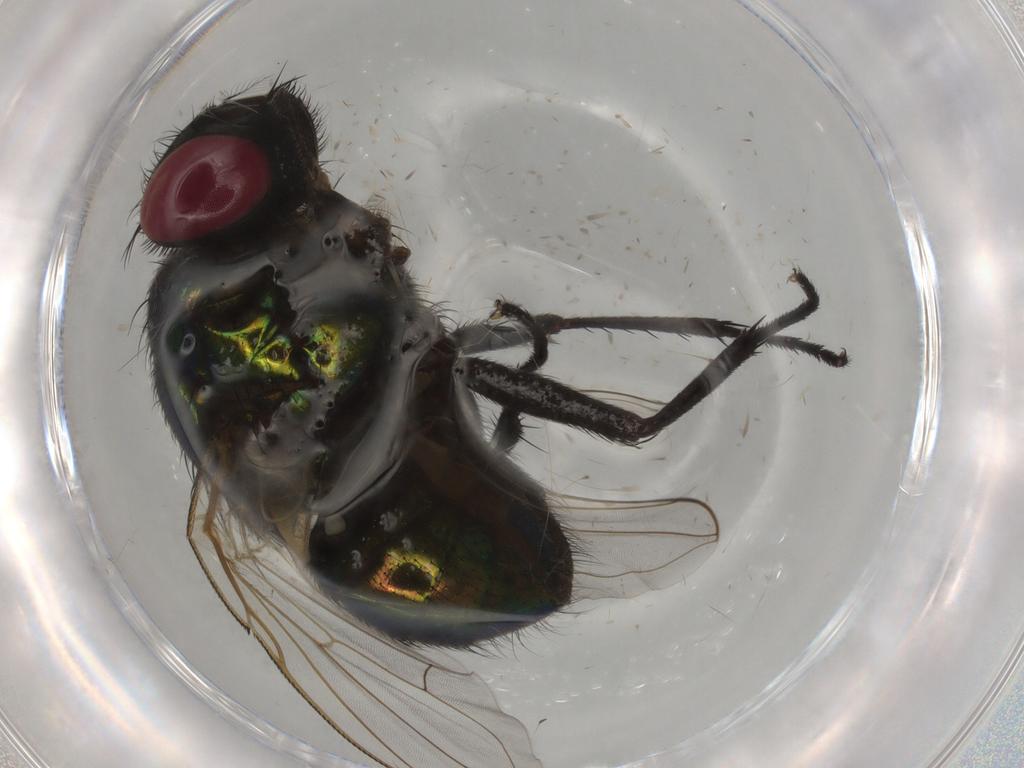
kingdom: Animalia
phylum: Arthropoda
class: Insecta
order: Diptera
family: Muscidae
